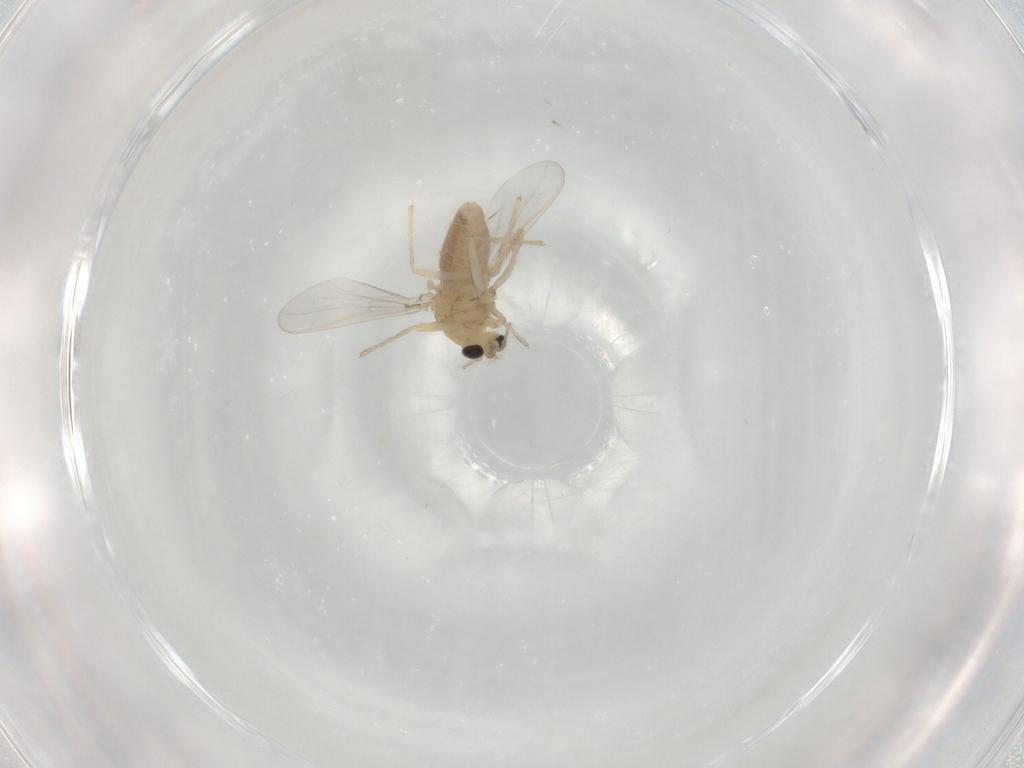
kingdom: Animalia
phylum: Arthropoda
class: Insecta
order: Diptera
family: Chironomidae
